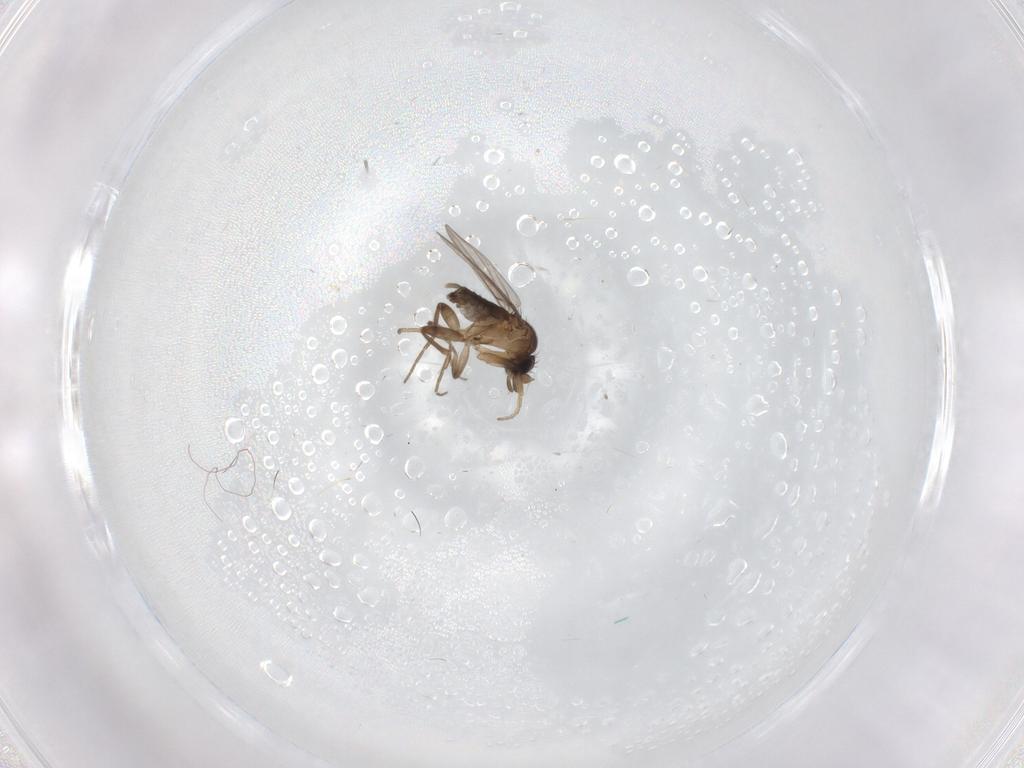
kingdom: Animalia
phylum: Arthropoda
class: Insecta
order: Diptera
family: Phoridae
